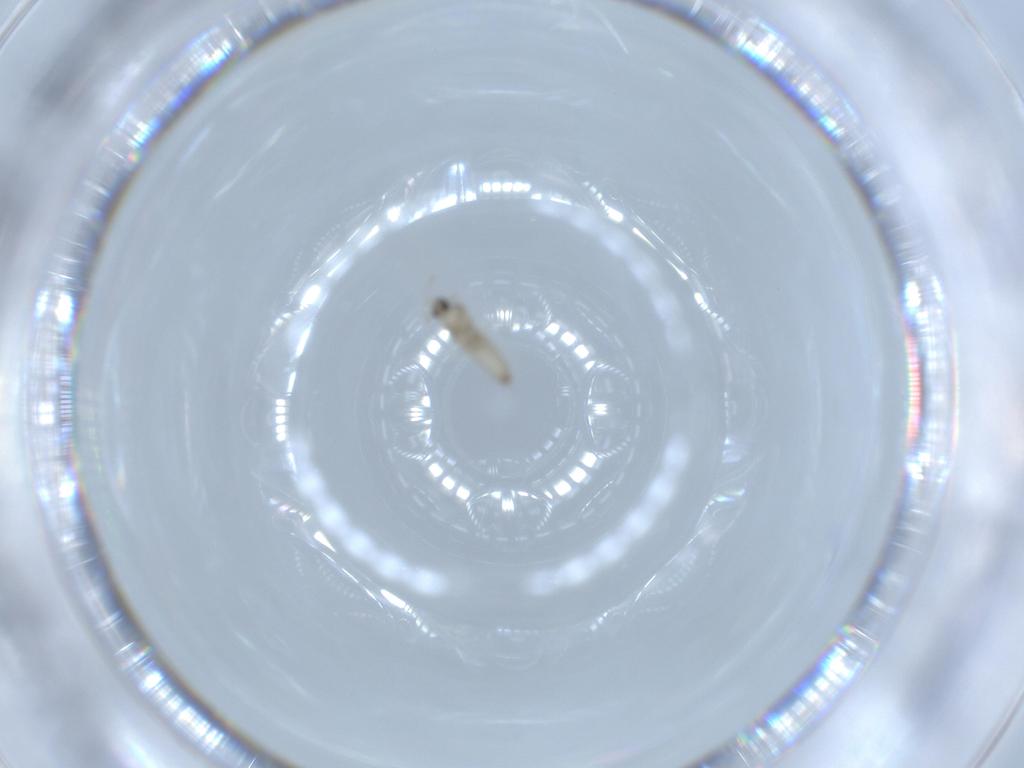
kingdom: Animalia
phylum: Arthropoda
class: Insecta
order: Diptera
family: Cecidomyiidae
